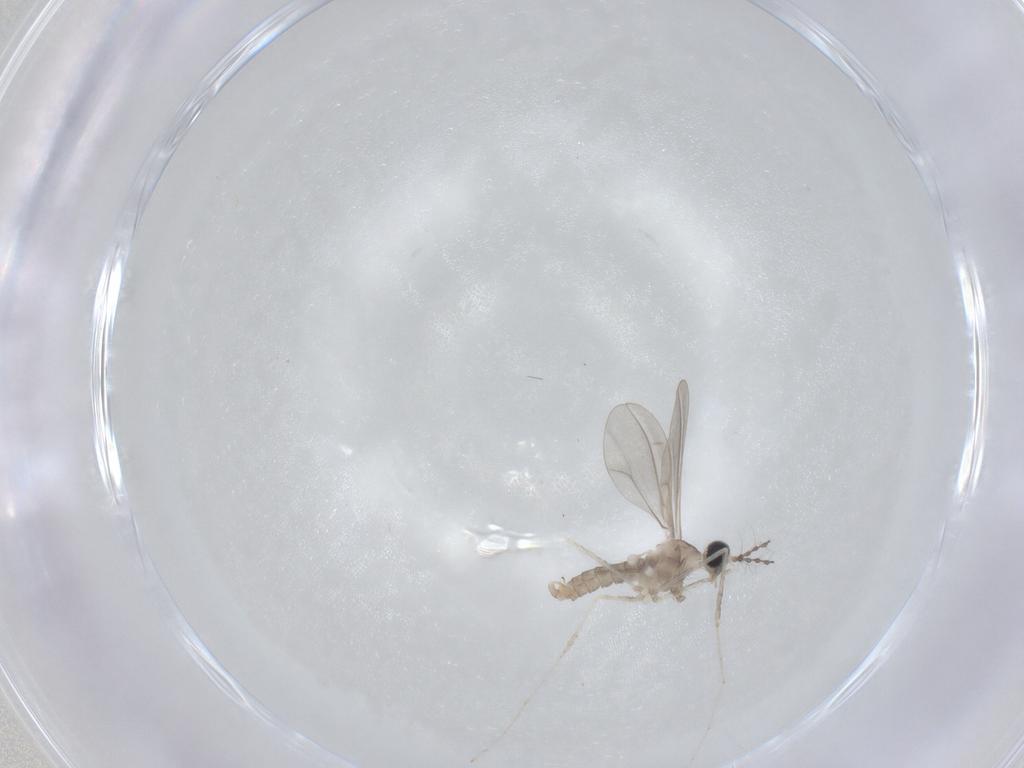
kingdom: Animalia
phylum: Arthropoda
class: Insecta
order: Diptera
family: Cecidomyiidae
